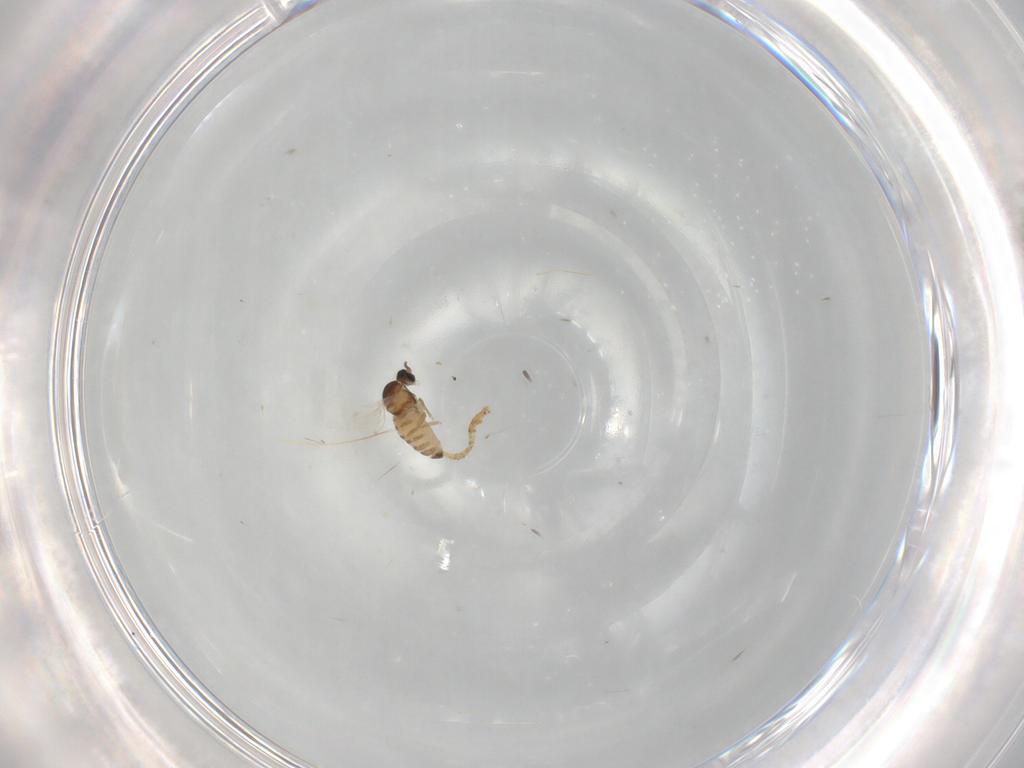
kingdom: Animalia
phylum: Arthropoda
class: Insecta
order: Diptera
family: Cecidomyiidae
